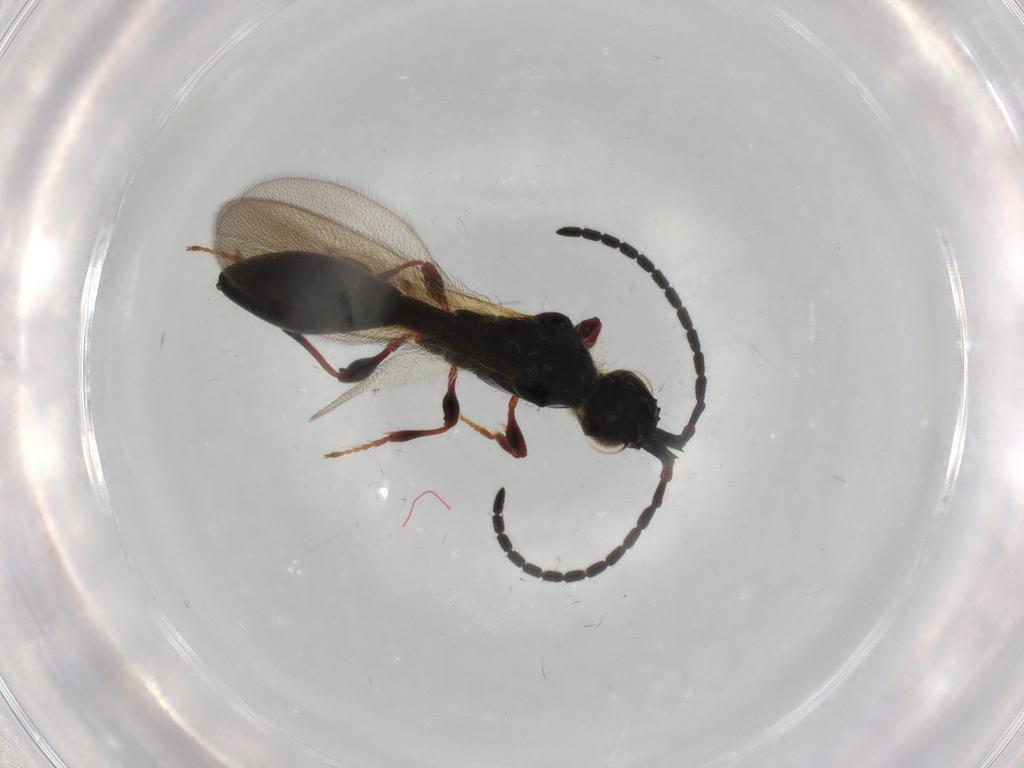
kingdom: Animalia
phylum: Arthropoda
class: Insecta
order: Hymenoptera
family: Diapriidae
